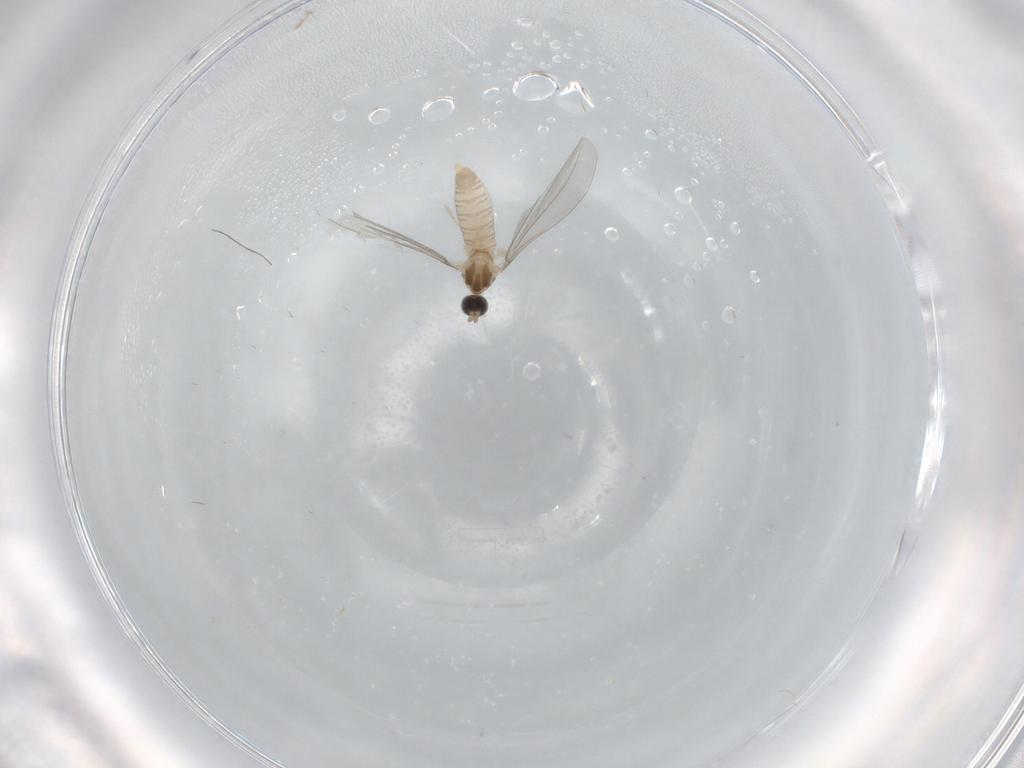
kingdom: Animalia
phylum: Arthropoda
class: Insecta
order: Diptera
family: Cecidomyiidae
